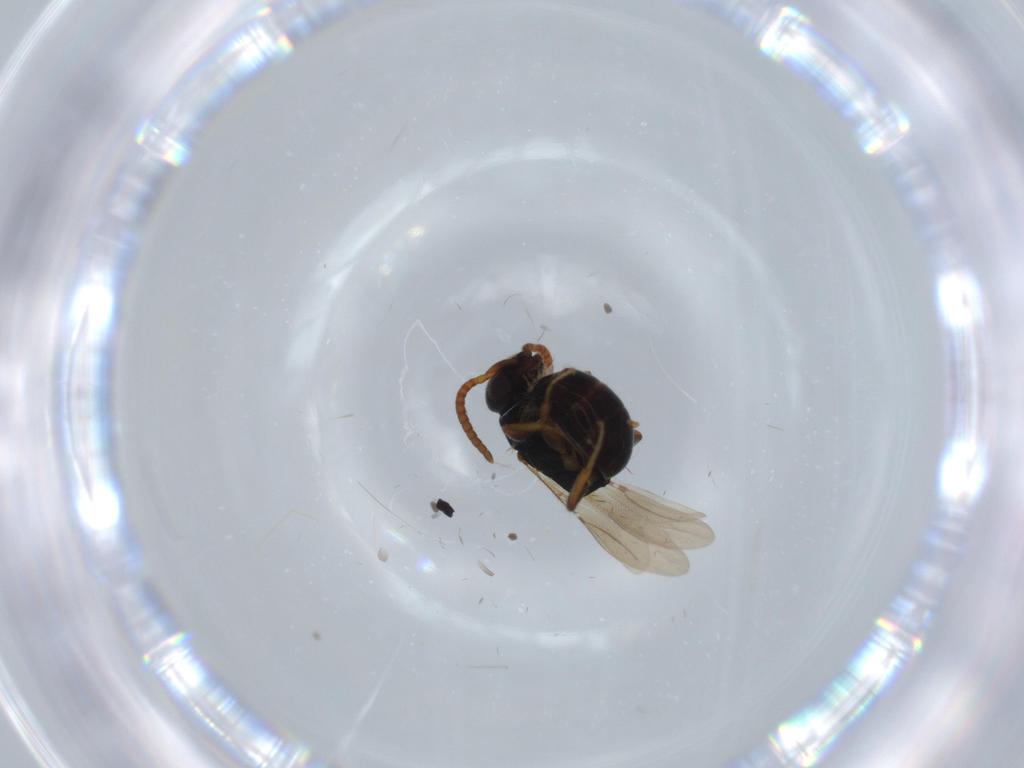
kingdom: Animalia
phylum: Arthropoda
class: Insecta
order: Hymenoptera
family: Bethylidae
